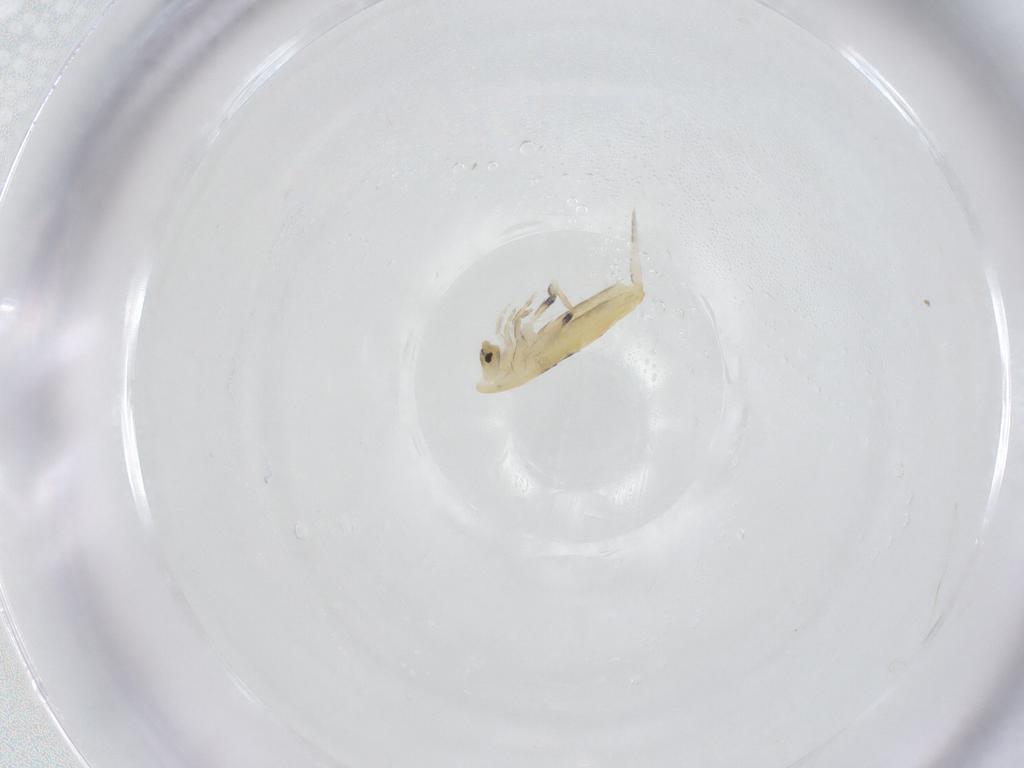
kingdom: Animalia
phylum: Arthropoda
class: Collembola
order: Entomobryomorpha
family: Entomobryidae
